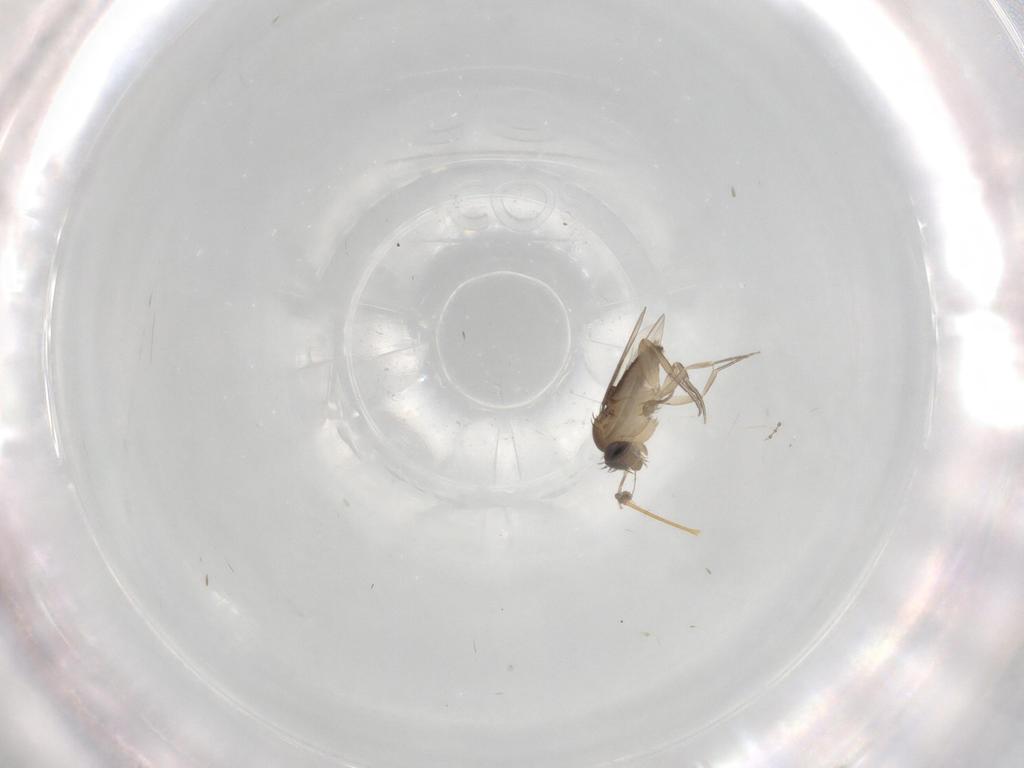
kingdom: Animalia
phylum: Arthropoda
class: Insecta
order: Diptera
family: Phoridae
